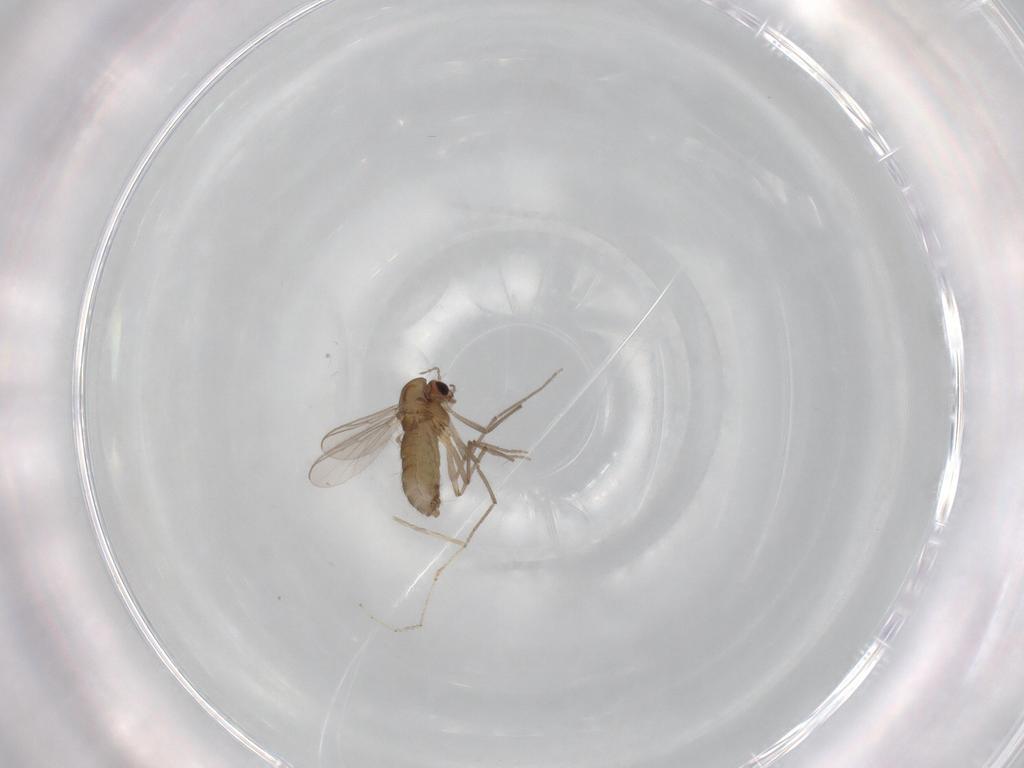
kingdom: Animalia
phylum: Arthropoda
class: Insecta
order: Diptera
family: Chironomidae
